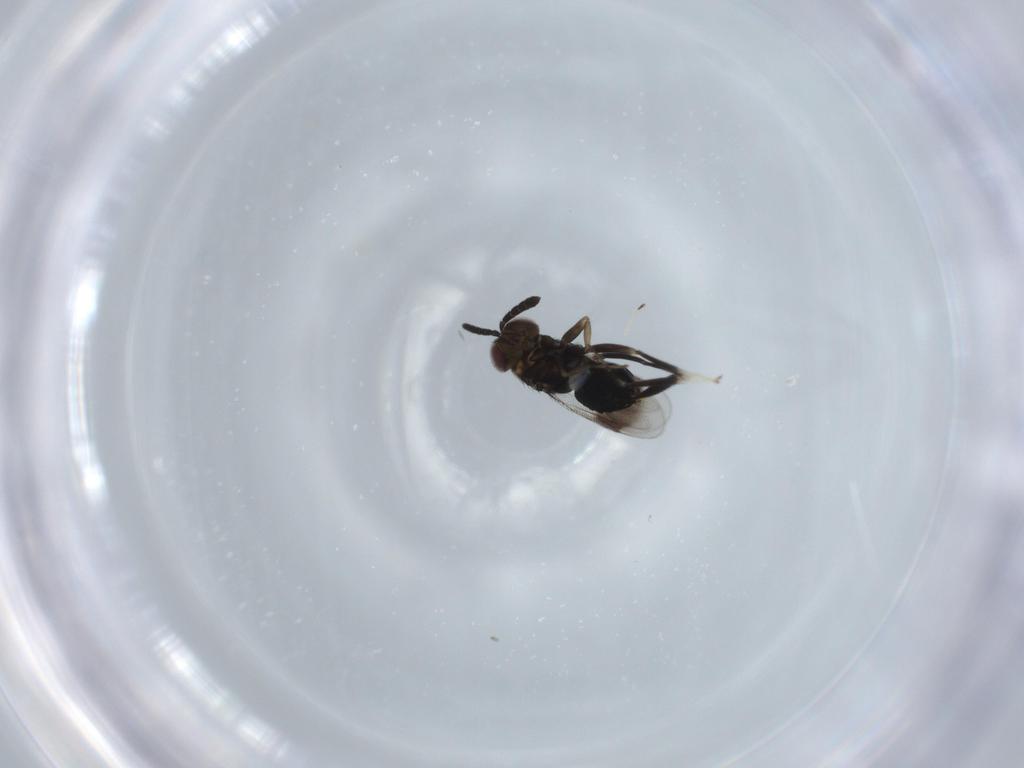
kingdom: Animalia
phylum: Arthropoda
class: Insecta
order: Hymenoptera
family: Aphelinidae
